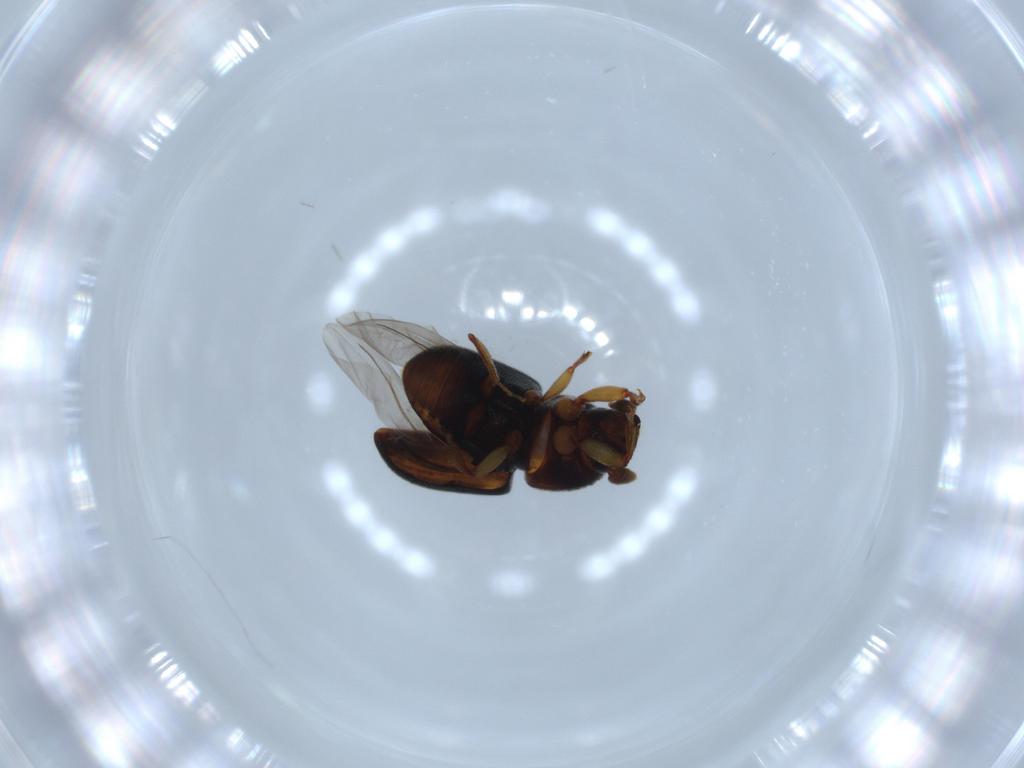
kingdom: Animalia
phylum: Arthropoda
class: Insecta
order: Coleoptera
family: Curculionidae
